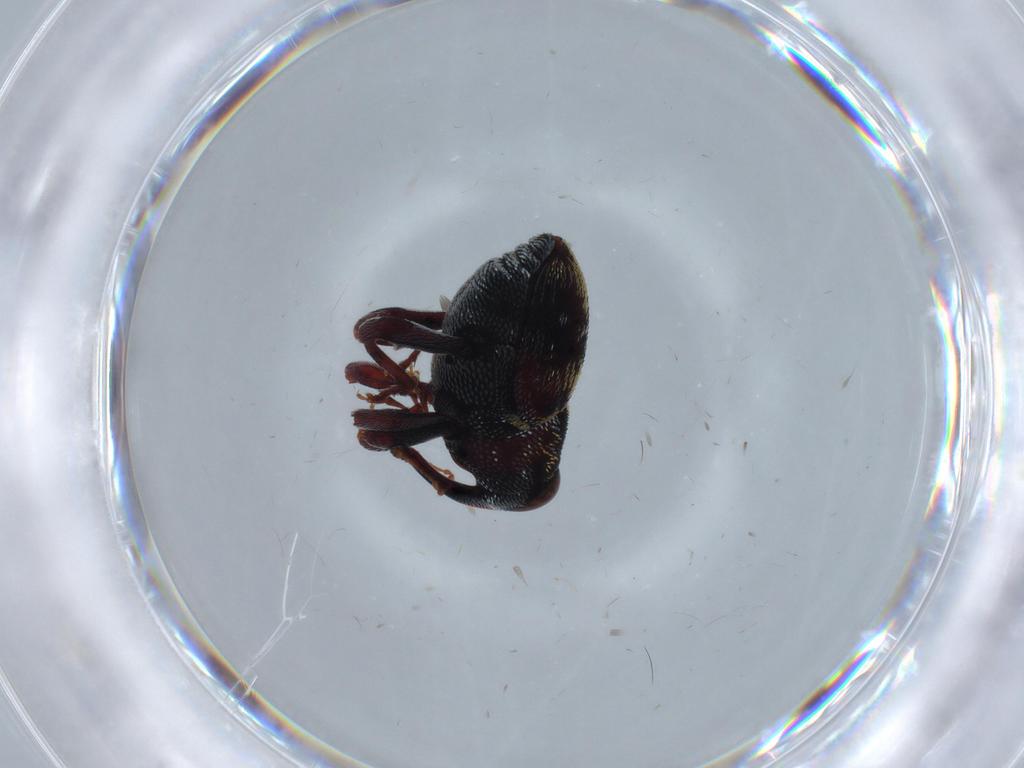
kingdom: Animalia
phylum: Arthropoda
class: Insecta
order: Coleoptera
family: Curculionidae
